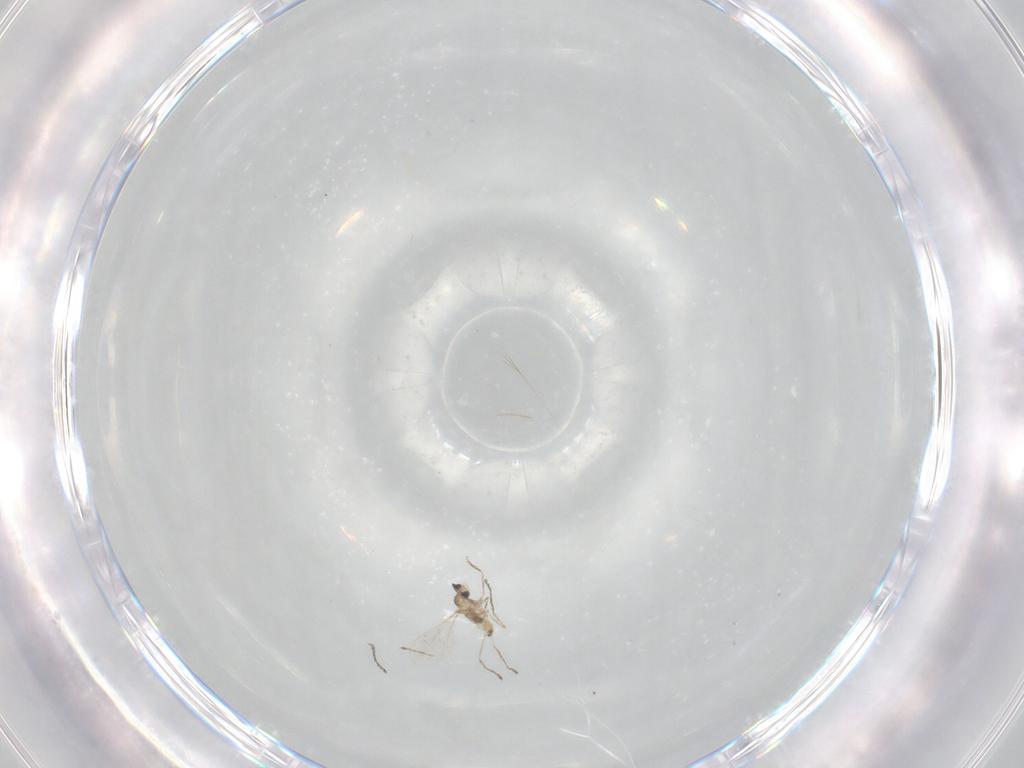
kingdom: Animalia
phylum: Arthropoda
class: Insecta
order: Diptera
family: Cecidomyiidae
